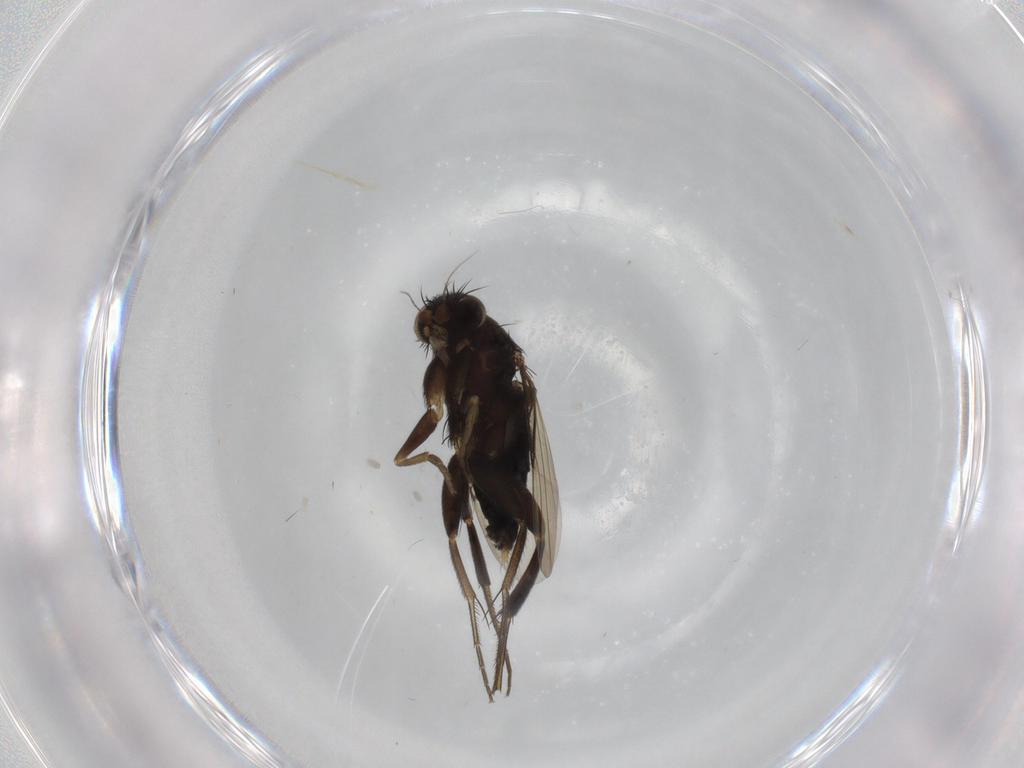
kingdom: Animalia
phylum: Arthropoda
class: Insecta
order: Diptera
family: Phoridae
